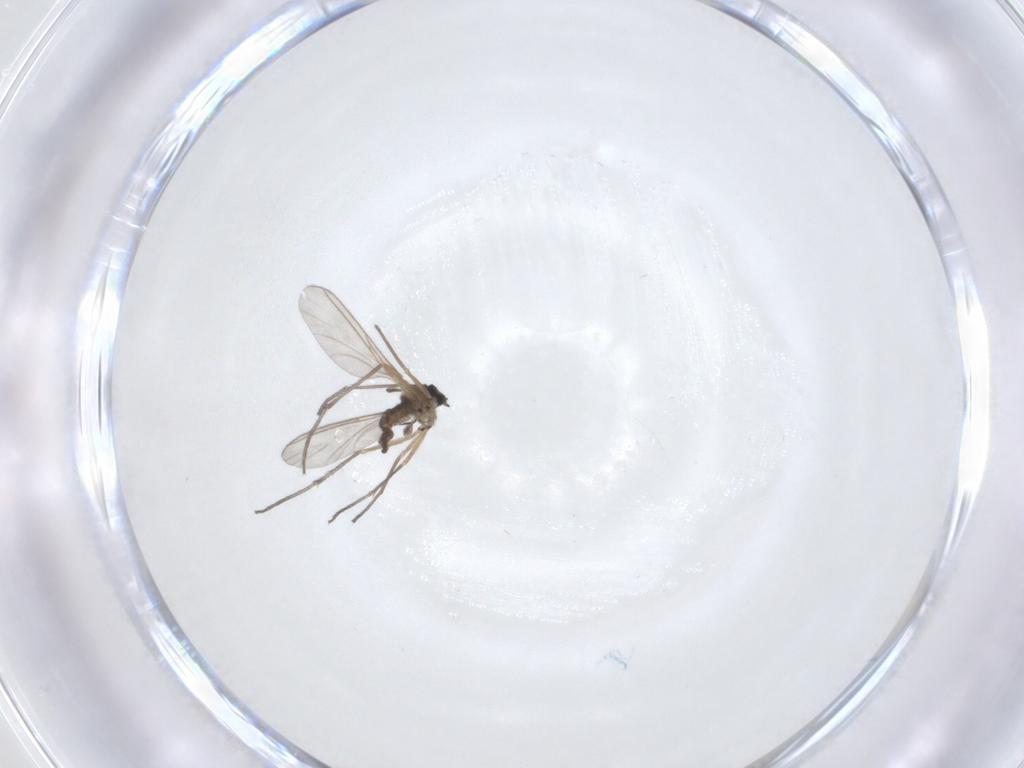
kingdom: Animalia
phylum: Arthropoda
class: Insecta
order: Diptera
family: Sciaridae
